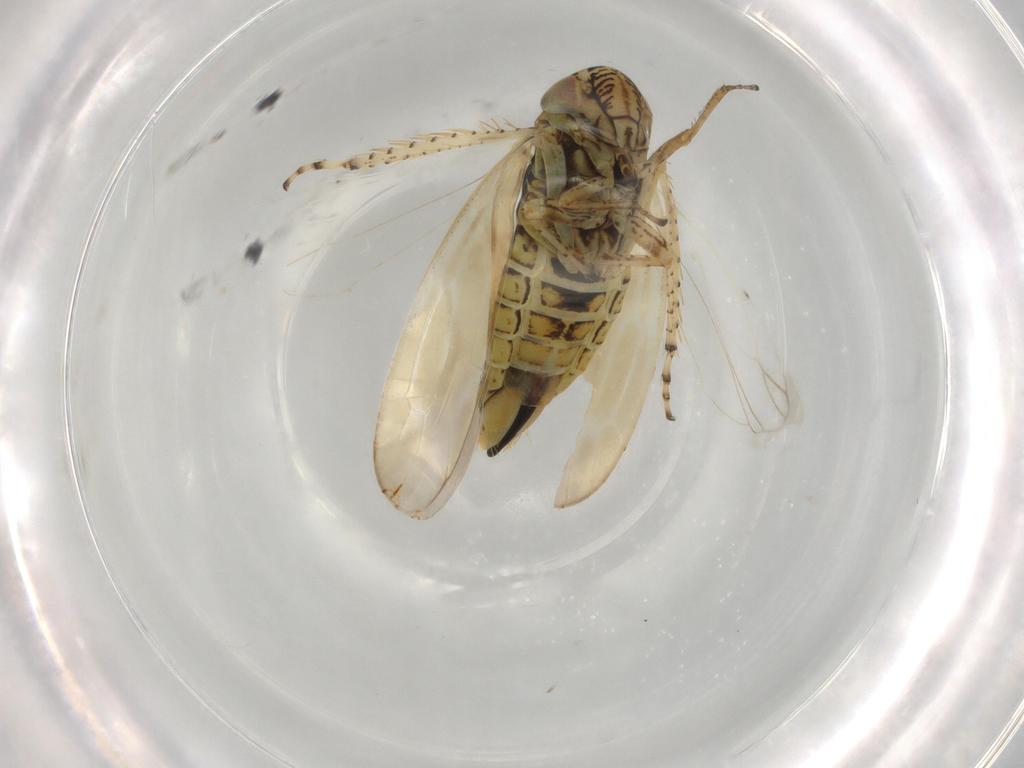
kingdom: Animalia
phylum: Arthropoda
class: Insecta
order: Hemiptera
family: Cicadellidae
